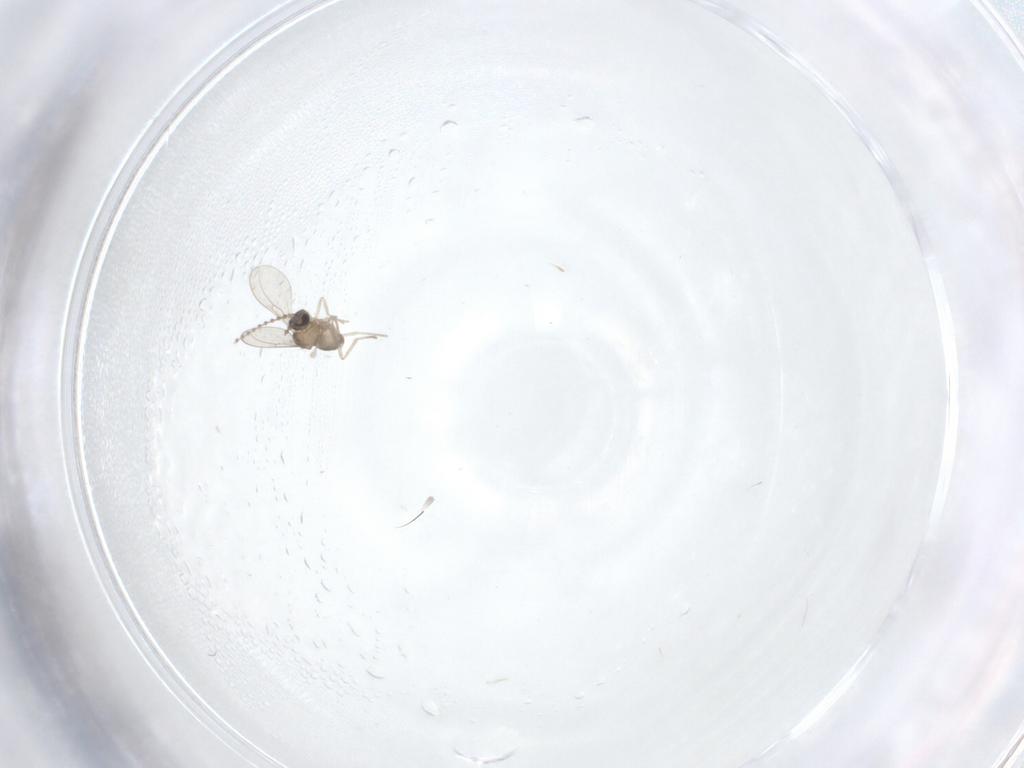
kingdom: Animalia
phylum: Arthropoda
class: Insecta
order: Diptera
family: Cecidomyiidae
